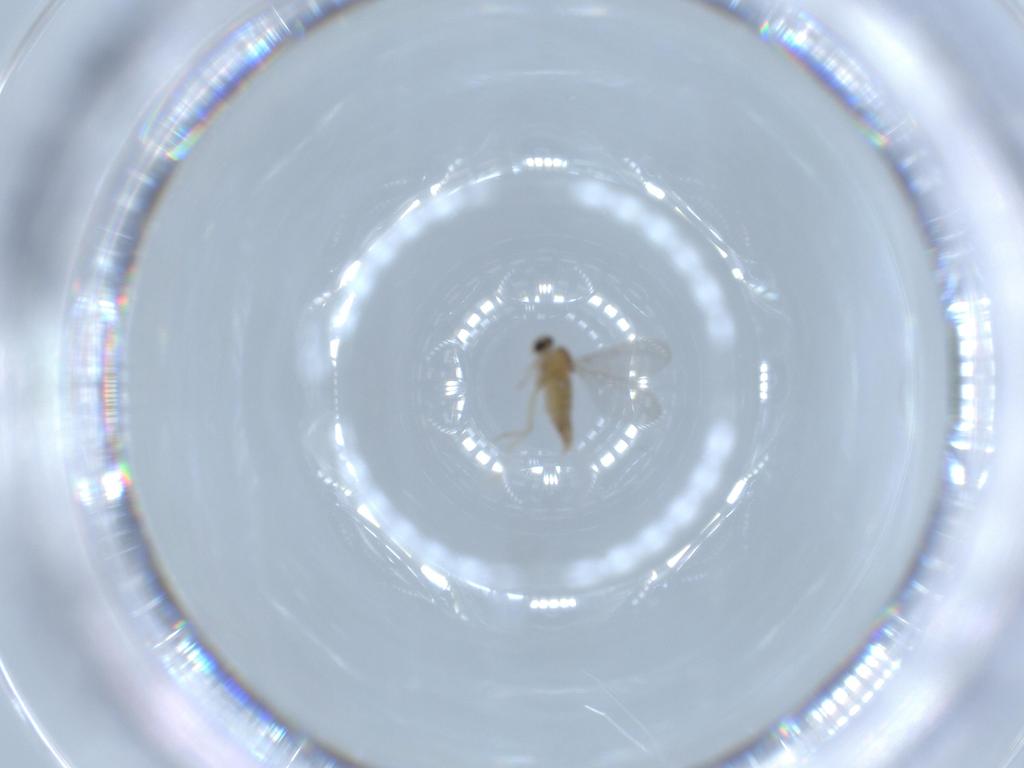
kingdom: Animalia
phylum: Arthropoda
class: Insecta
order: Diptera
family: Cecidomyiidae
